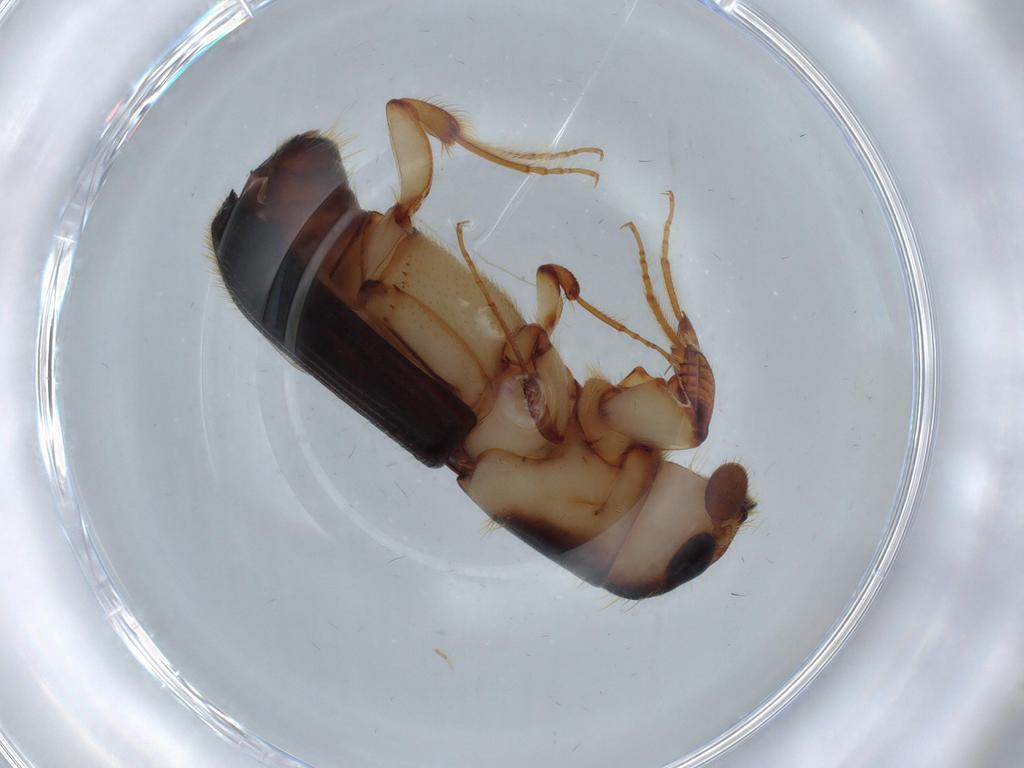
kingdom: Animalia
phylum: Arthropoda
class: Insecta
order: Coleoptera
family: Curculionidae
